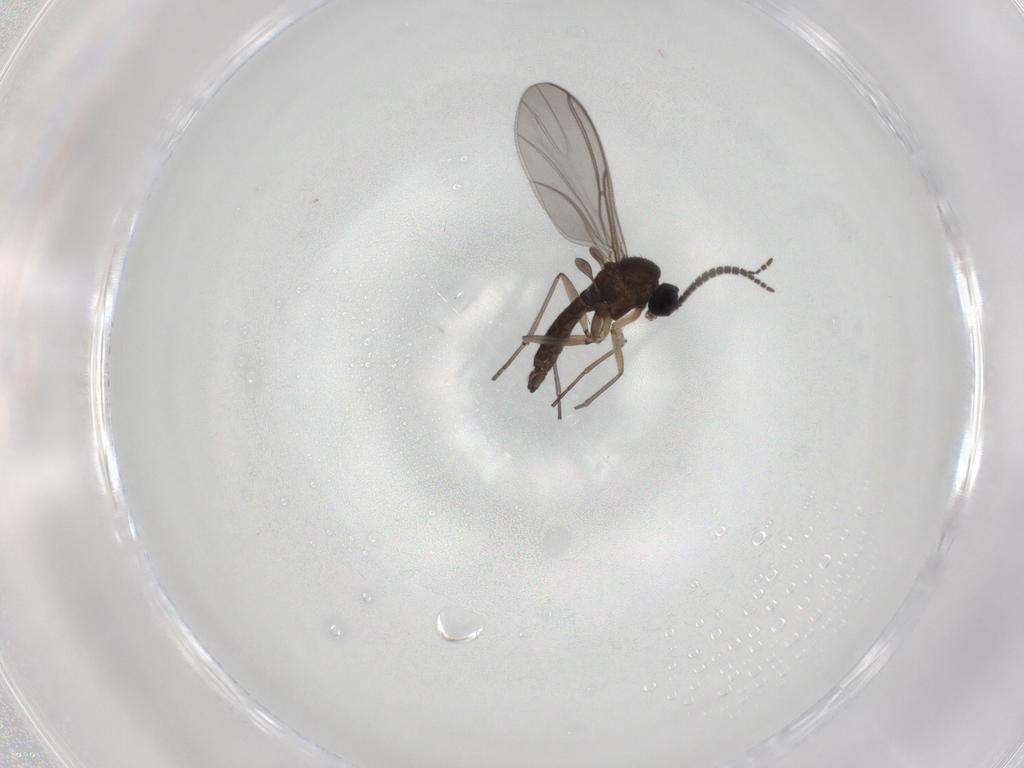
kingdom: Animalia
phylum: Arthropoda
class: Insecta
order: Diptera
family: Sciaridae
